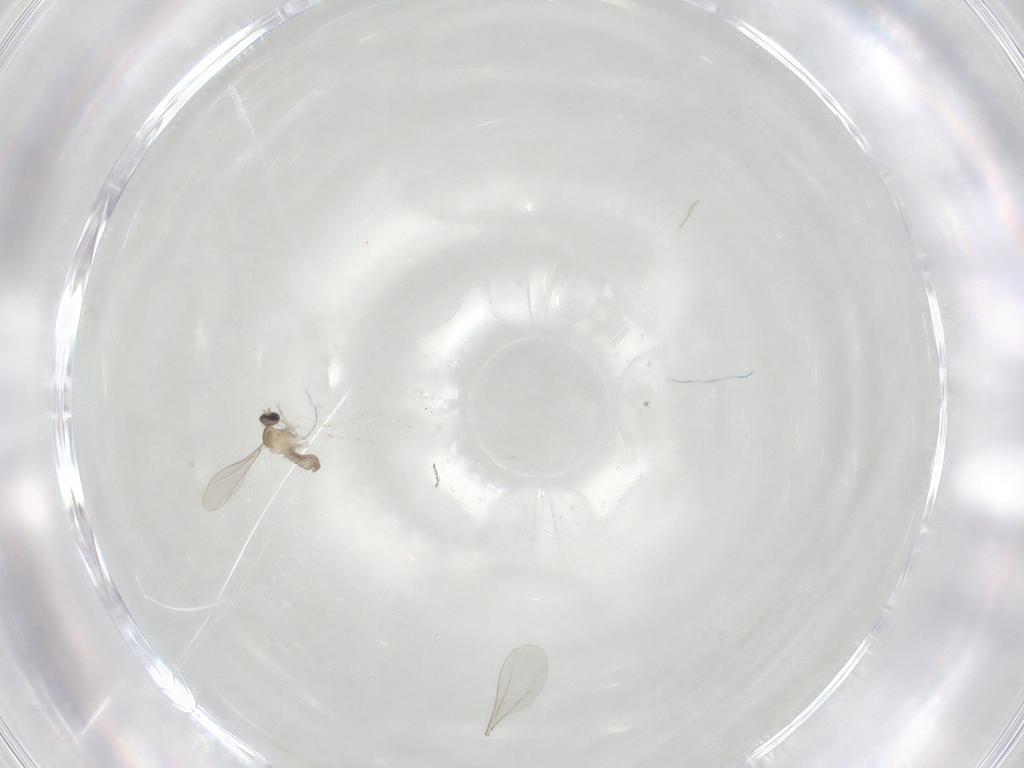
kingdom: Animalia
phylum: Arthropoda
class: Insecta
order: Diptera
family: Cecidomyiidae
